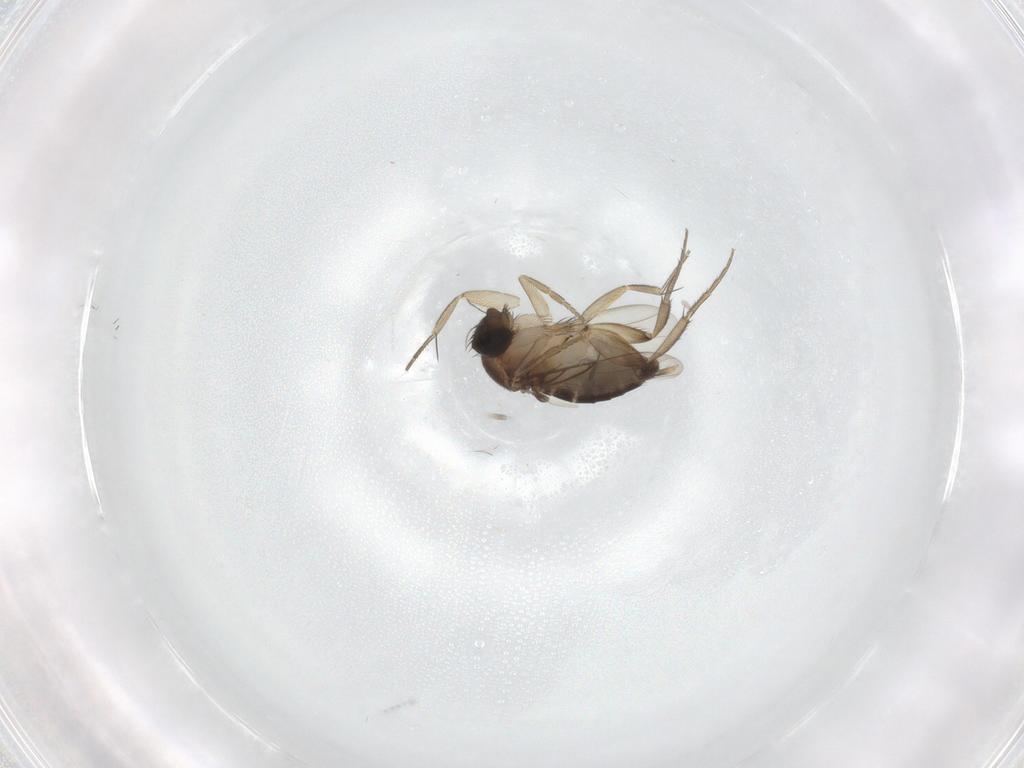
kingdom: Animalia
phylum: Arthropoda
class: Insecta
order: Diptera
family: Phoridae
